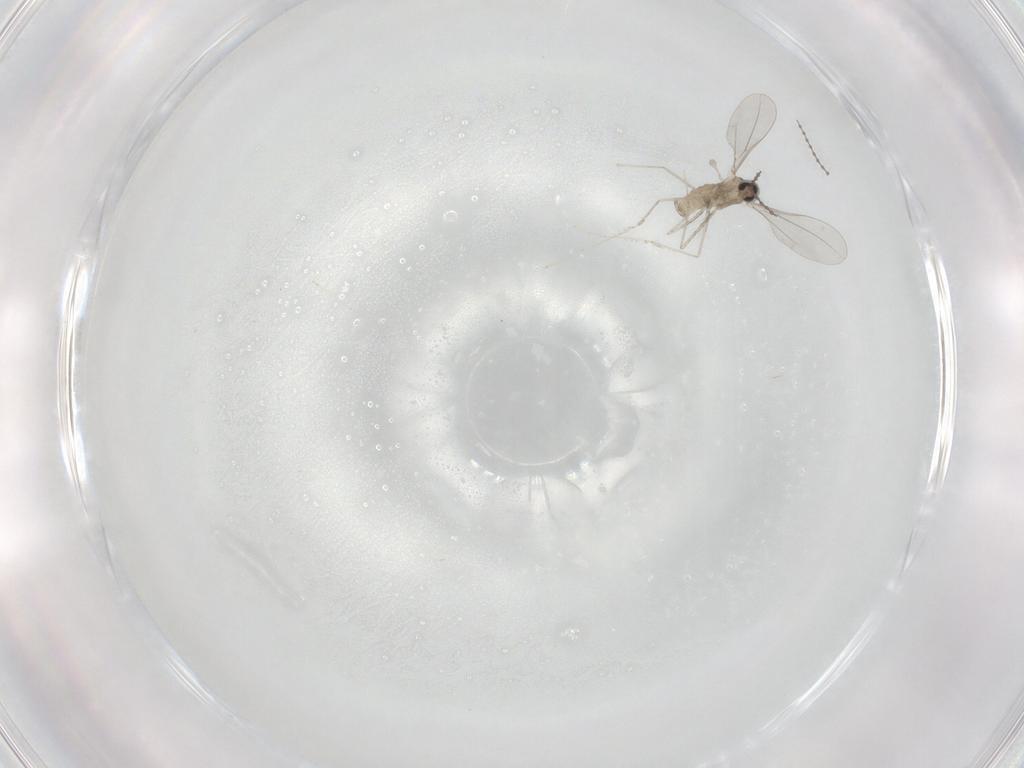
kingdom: Animalia
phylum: Arthropoda
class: Insecta
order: Diptera
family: Cecidomyiidae
